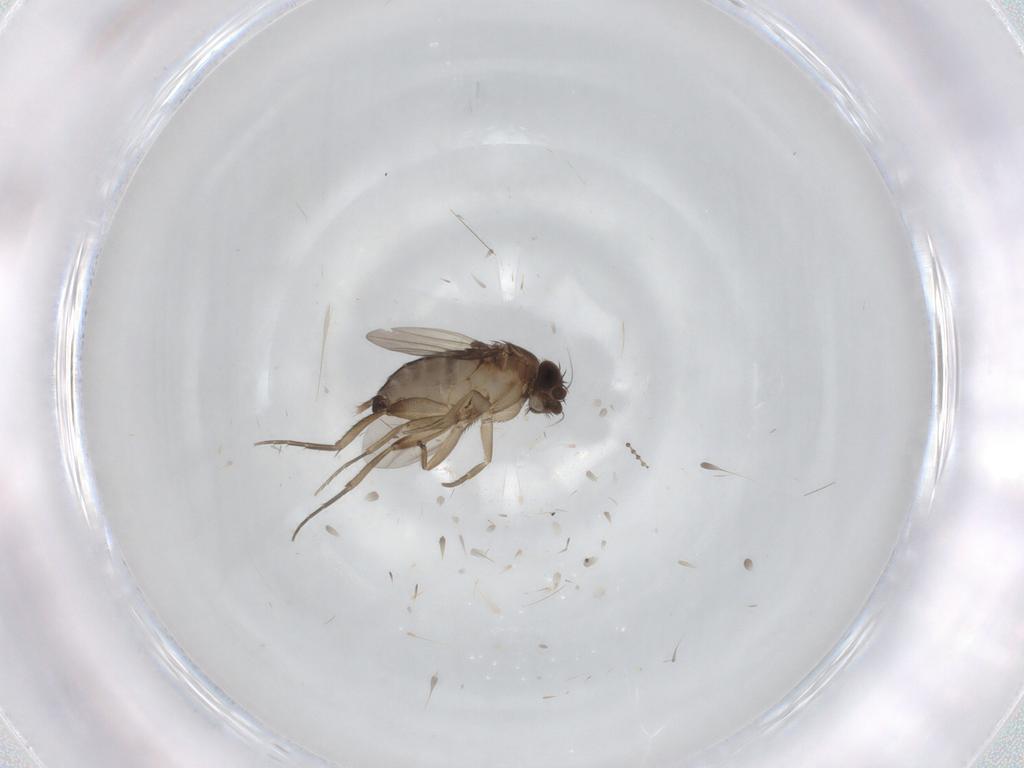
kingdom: Animalia
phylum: Arthropoda
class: Insecta
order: Diptera
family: Phoridae
